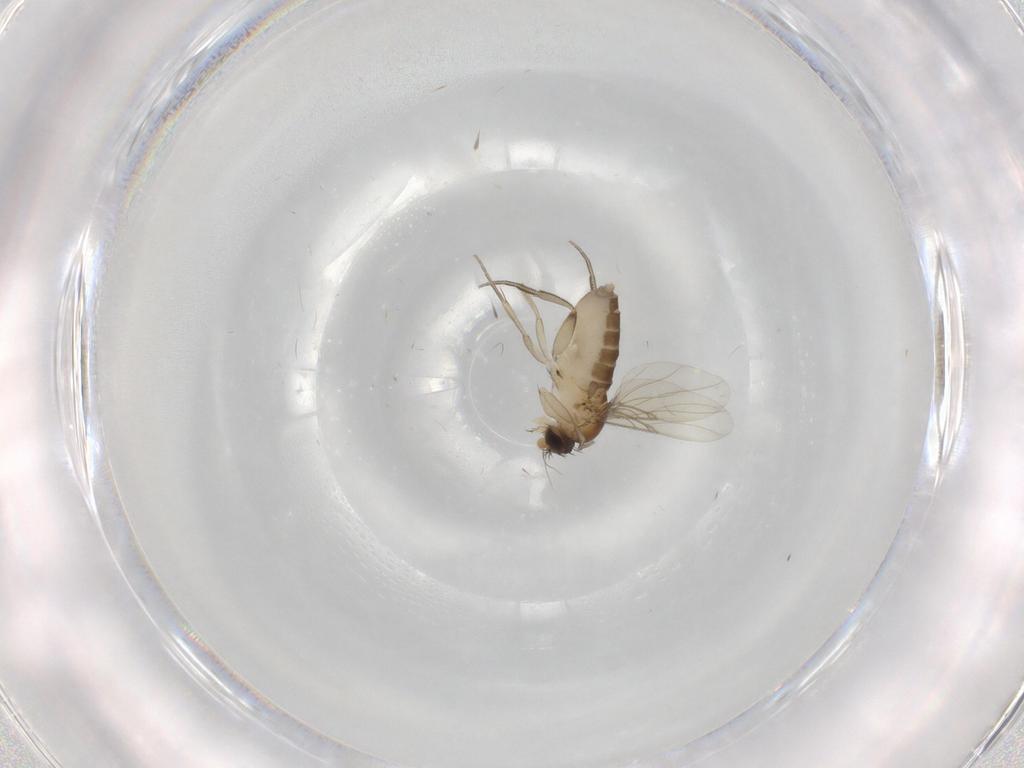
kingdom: Animalia
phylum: Arthropoda
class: Insecta
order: Diptera
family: Phoridae
